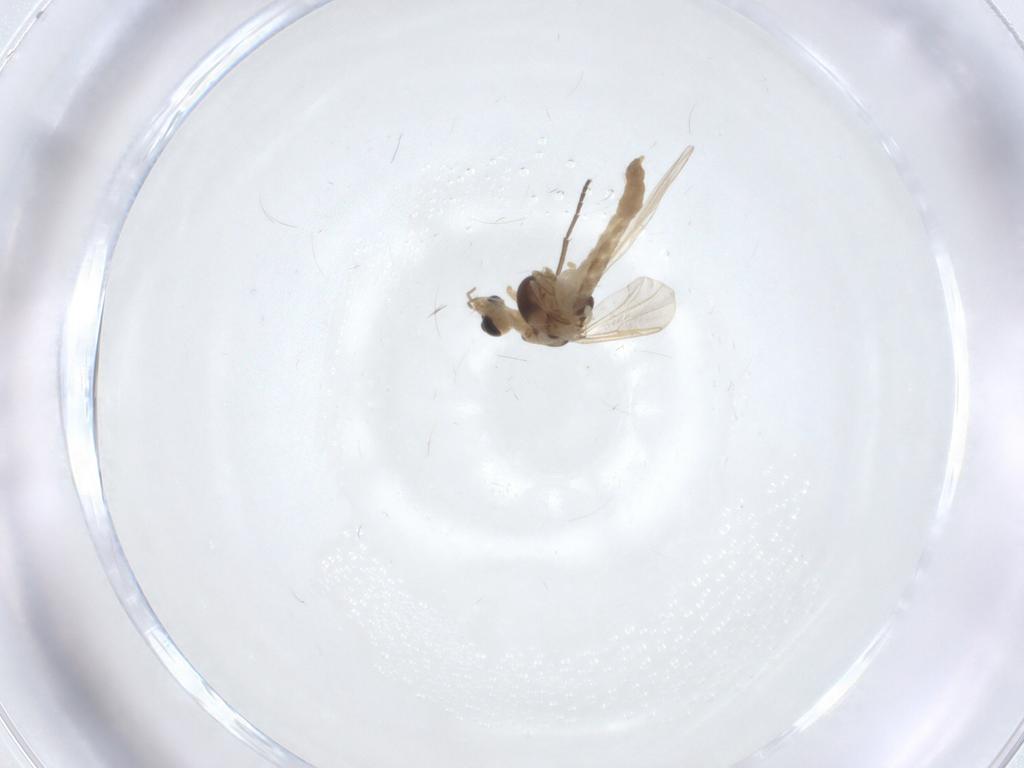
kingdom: Animalia
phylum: Arthropoda
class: Insecta
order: Diptera
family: Chironomidae
